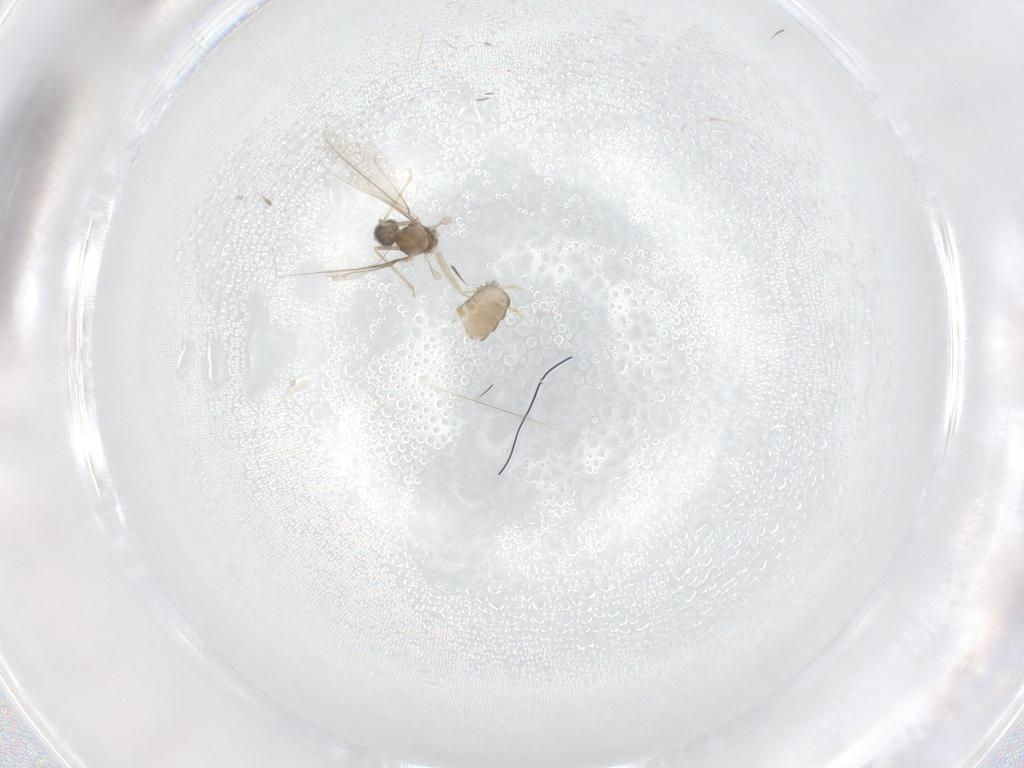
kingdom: Animalia
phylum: Arthropoda
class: Insecta
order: Diptera
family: Cecidomyiidae
